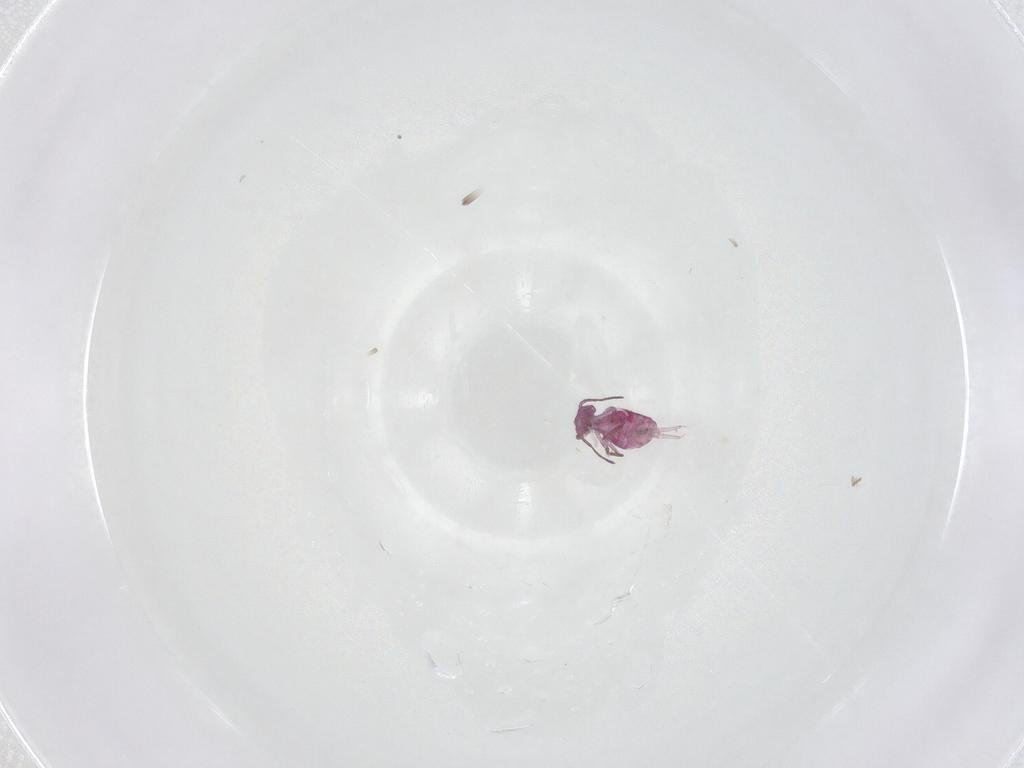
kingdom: Animalia
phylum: Arthropoda
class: Collembola
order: Symphypleona
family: Sminthuridae
